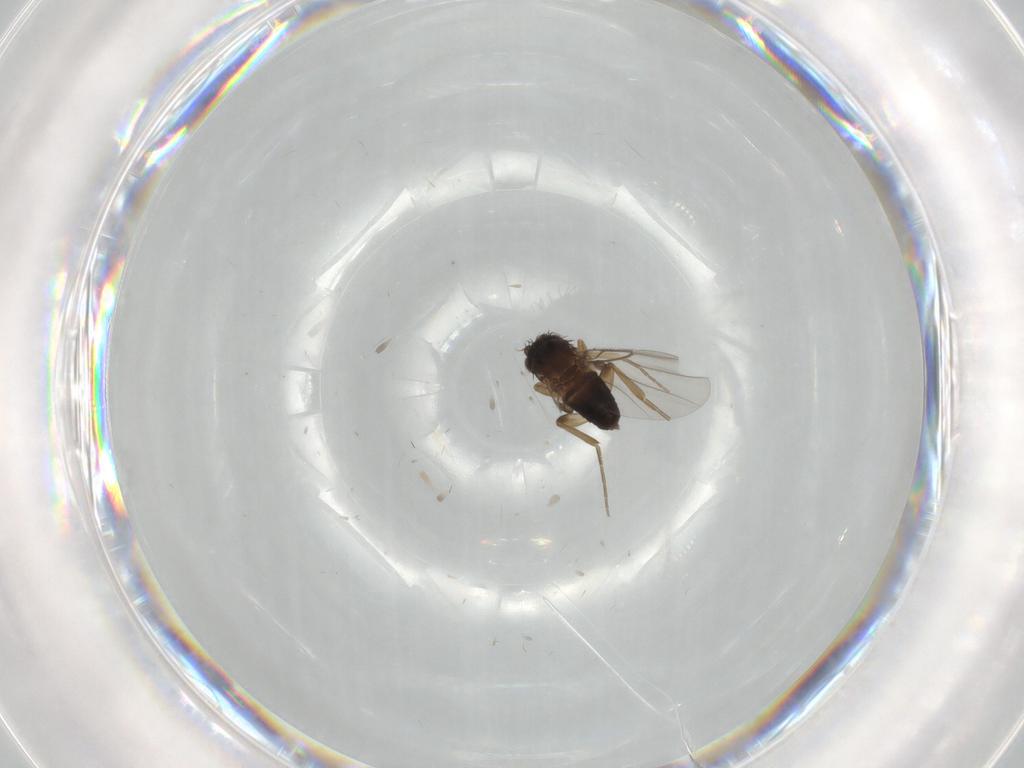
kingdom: Animalia
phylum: Arthropoda
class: Insecta
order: Diptera
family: Phoridae
